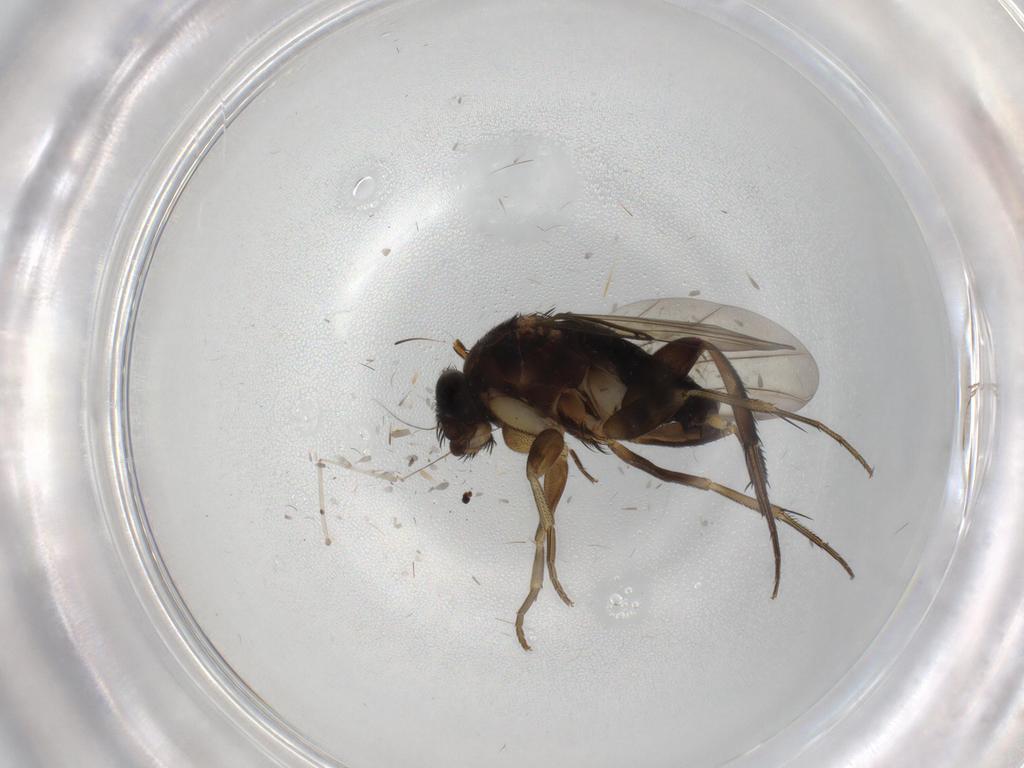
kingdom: Animalia
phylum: Arthropoda
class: Insecta
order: Diptera
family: Phoridae
